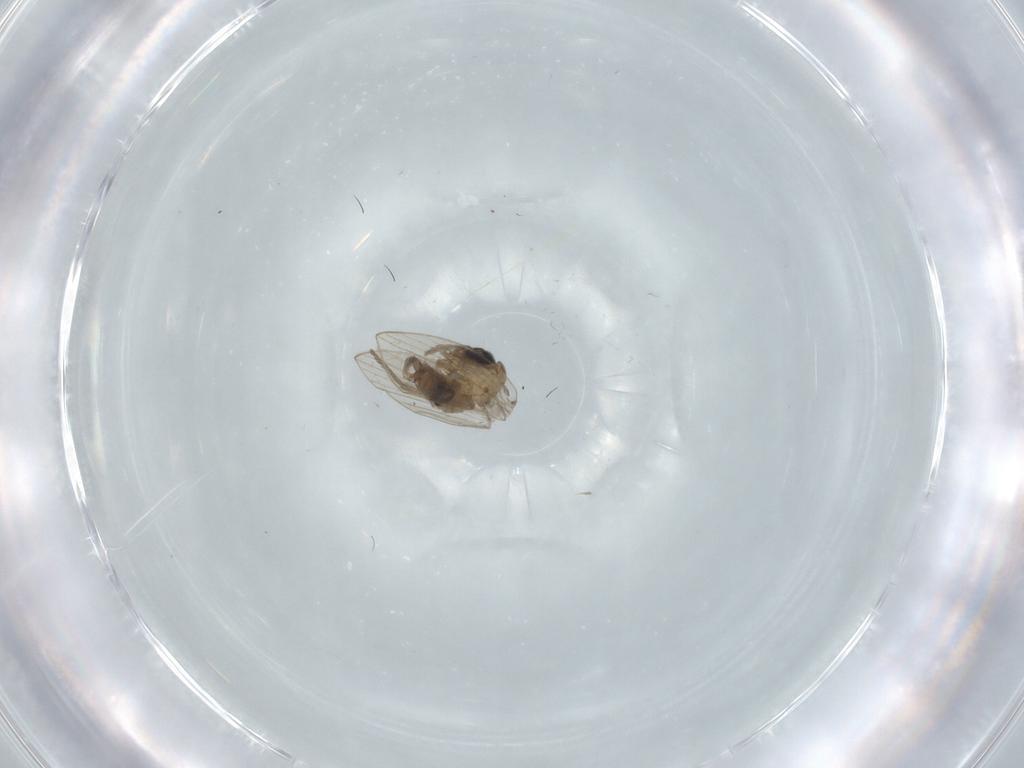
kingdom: Animalia
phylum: Arthropoda
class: Insecta
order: Diptera
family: Psychodidae
